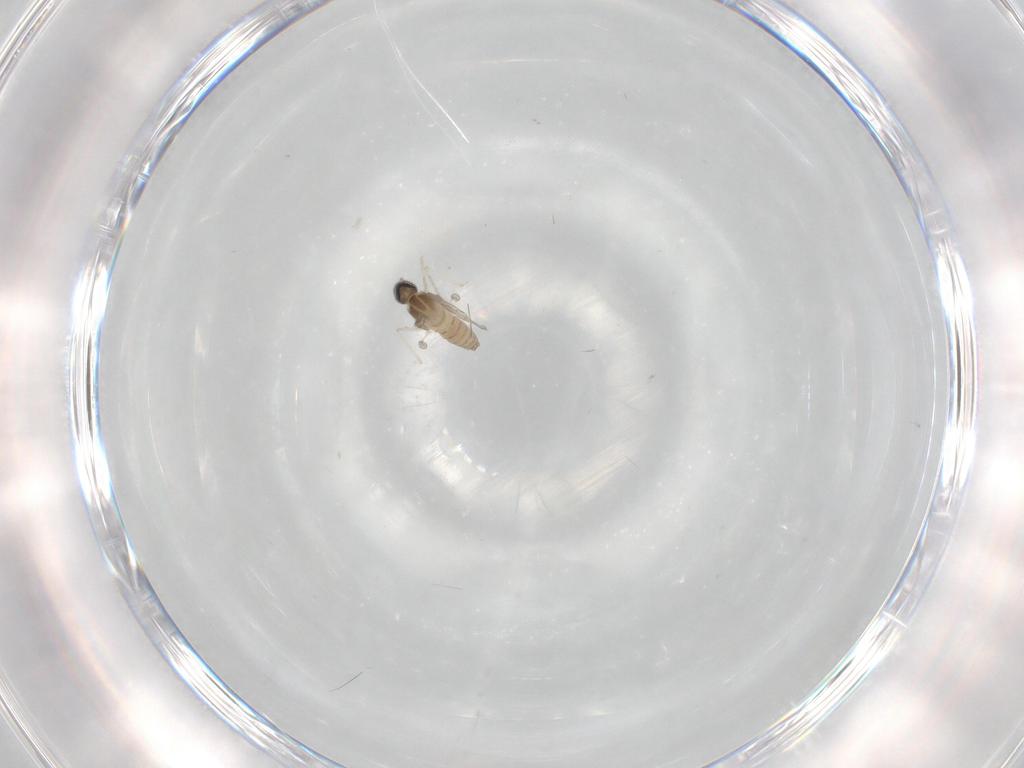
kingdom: Animalia
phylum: Arthropoda
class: Insecta
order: Diptera
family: Cecidomyiidae
